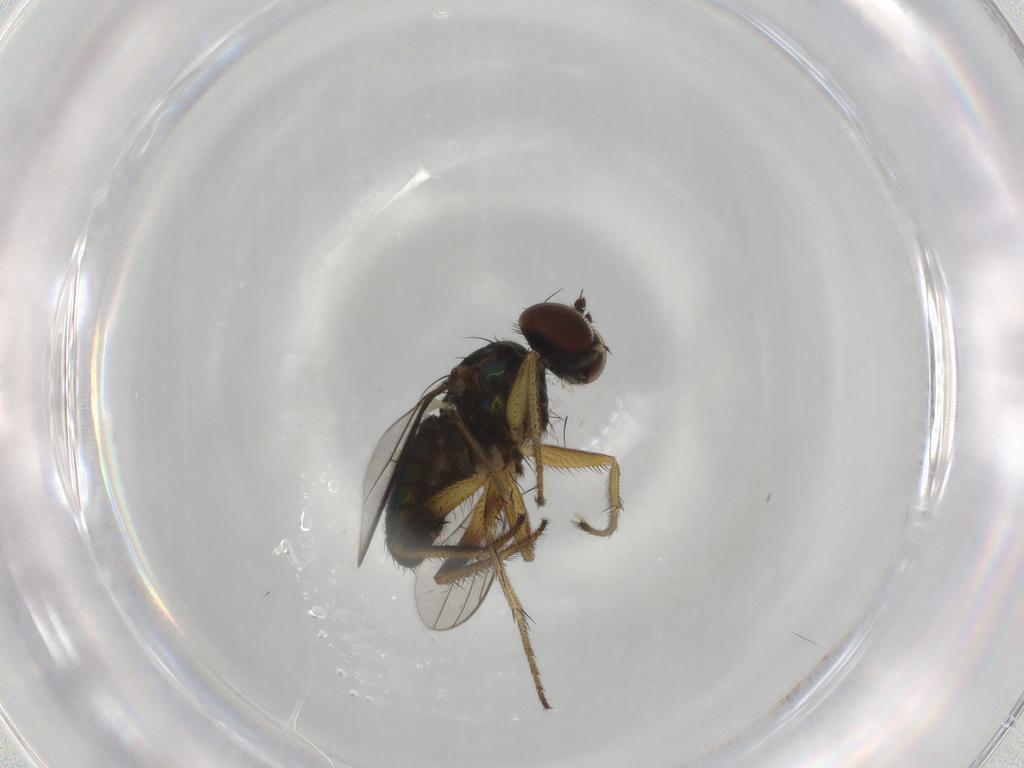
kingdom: Animalia
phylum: Arthropoda
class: Insecta
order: Diptera
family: Dolichopodidae
